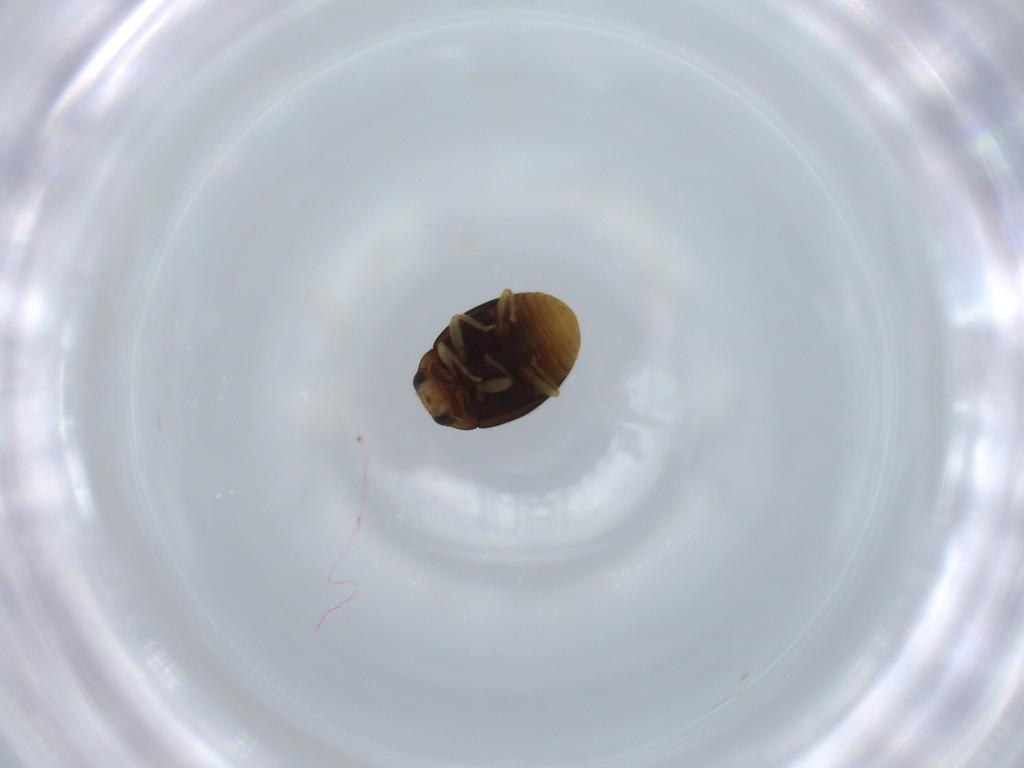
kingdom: Animalia
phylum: Arthropoda
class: Insecta
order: Coleoptera
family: Coccinellidae
